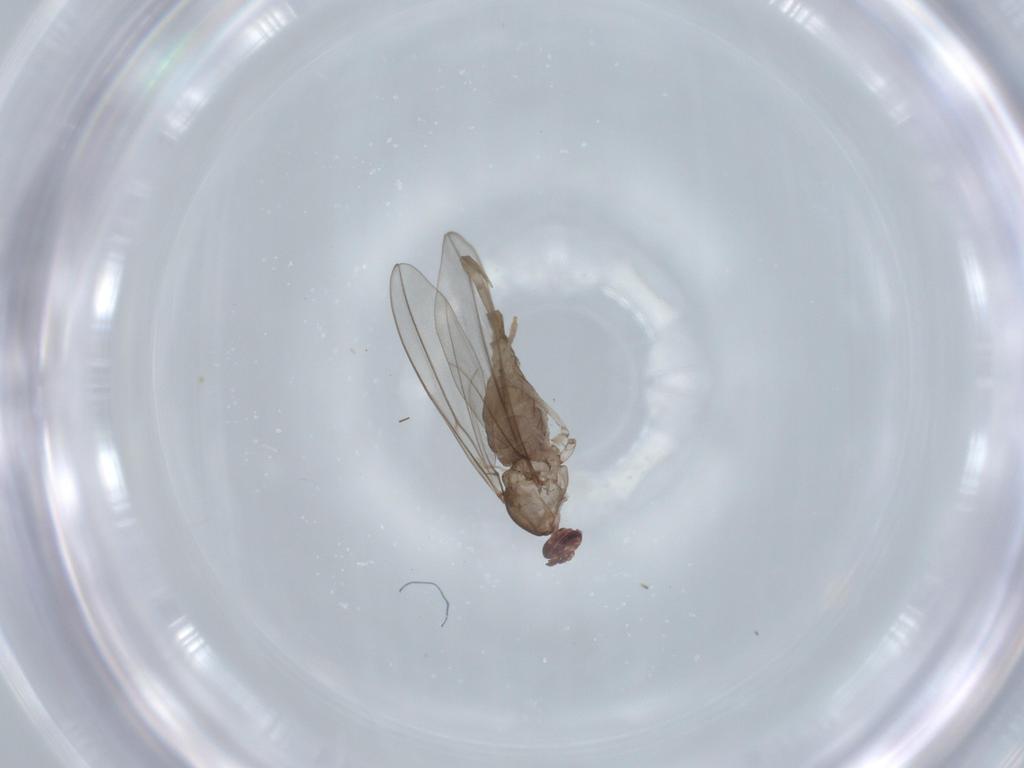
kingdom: Animalia
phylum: Arthropoda
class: Insecta
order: Diptera
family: Cecidomyiidae
